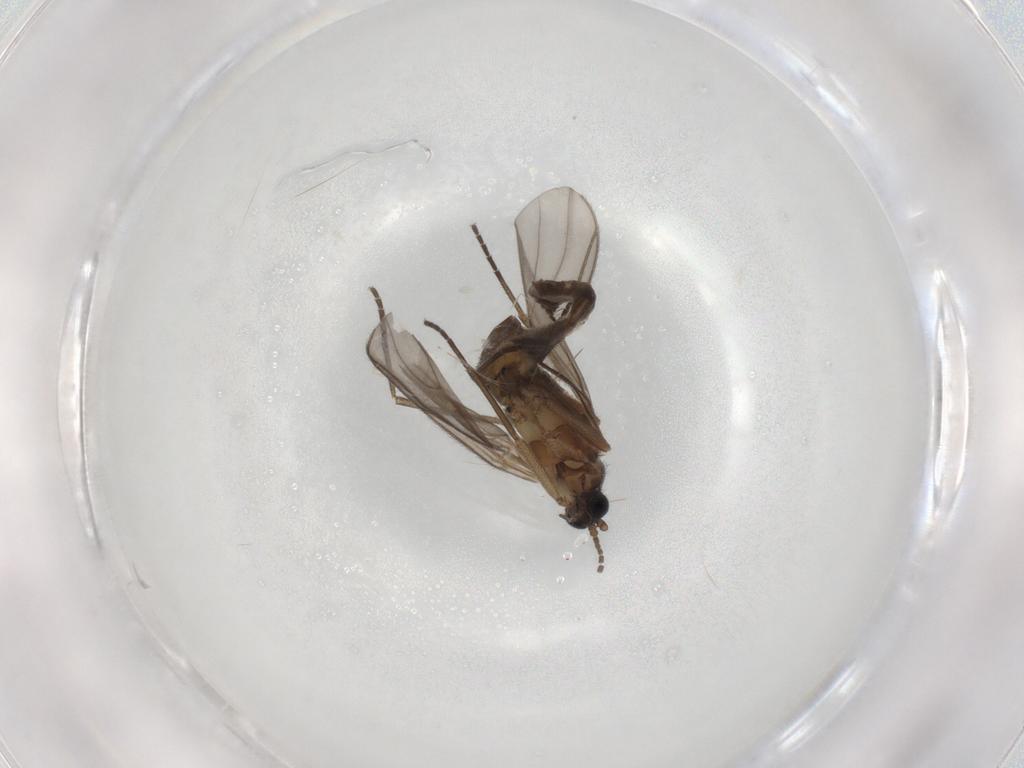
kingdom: Animalia
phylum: Arthropoda
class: Insecta
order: Diptera
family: Sciaridae
